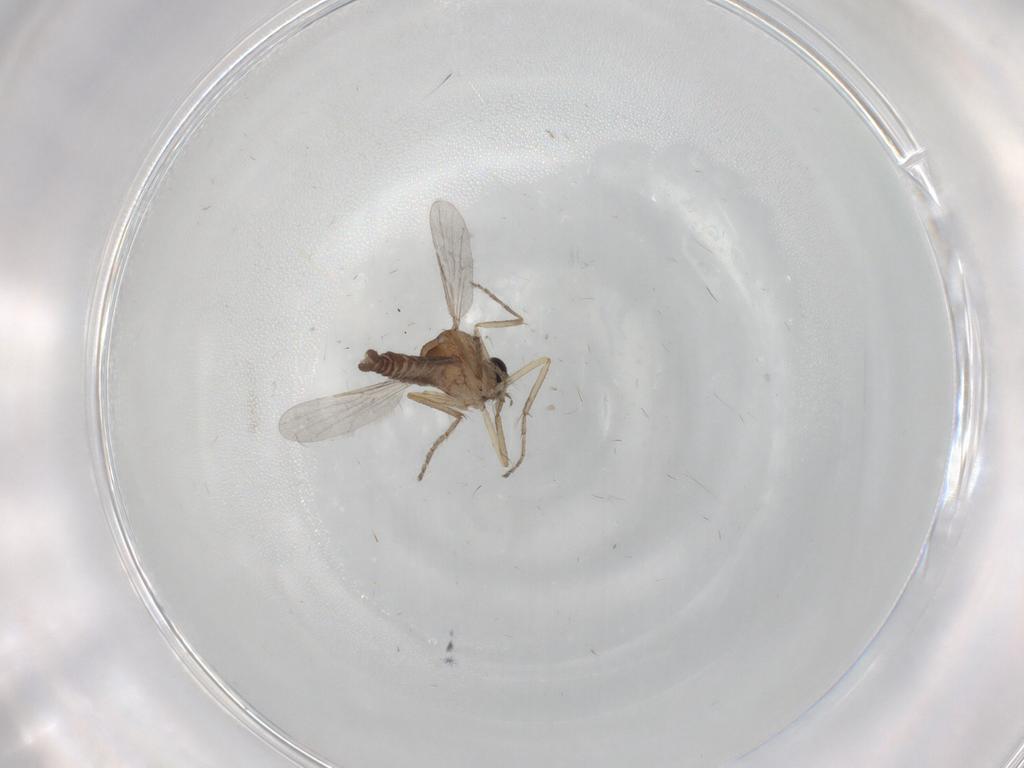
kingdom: Animalia
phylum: Arthropoda
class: Insecta
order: Diptera
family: Ceratopogonidae
